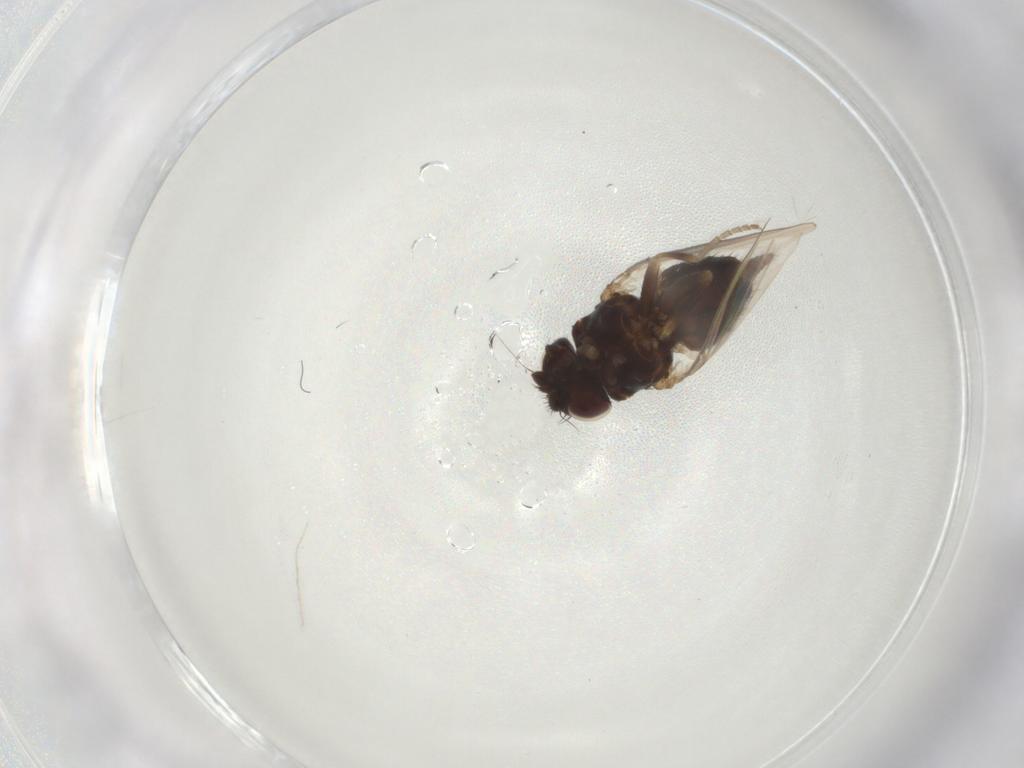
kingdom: Animalia
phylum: Arthropoda
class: Insecta
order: Diptera
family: Milichiidae
